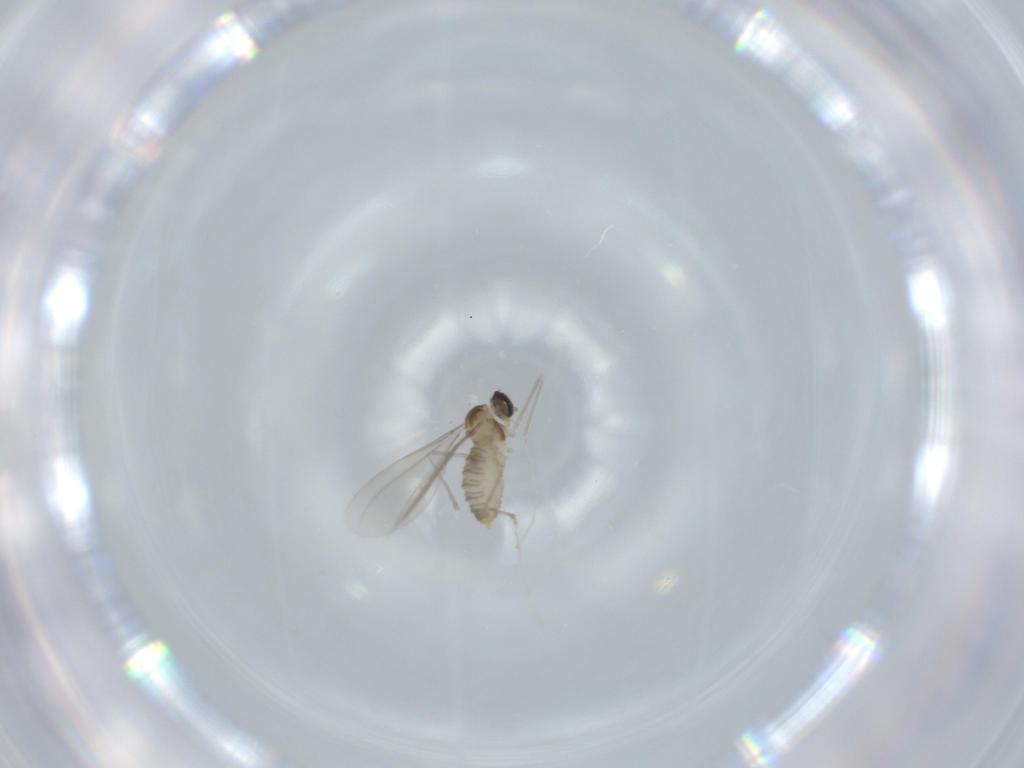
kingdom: Animalia
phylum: Arthropoda
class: Insecta
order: Diptera
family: Cecidomyiidae
